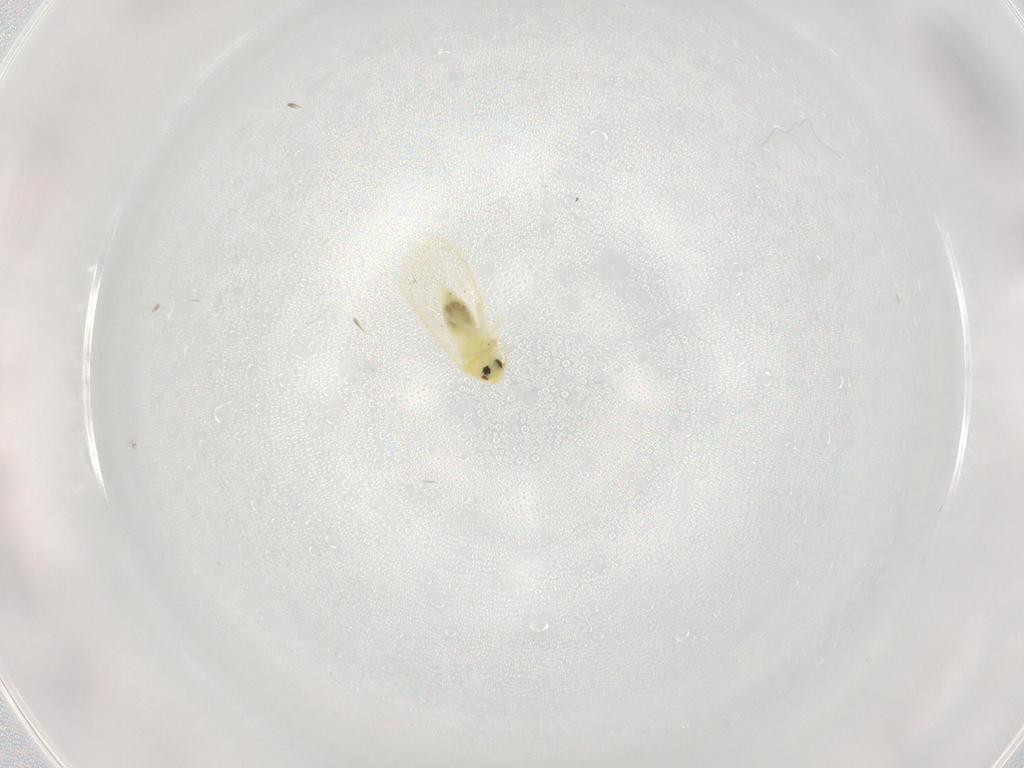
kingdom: Animalia
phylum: Arthropoda
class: Insecta
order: Hemiptera
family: Aleyrodidae
